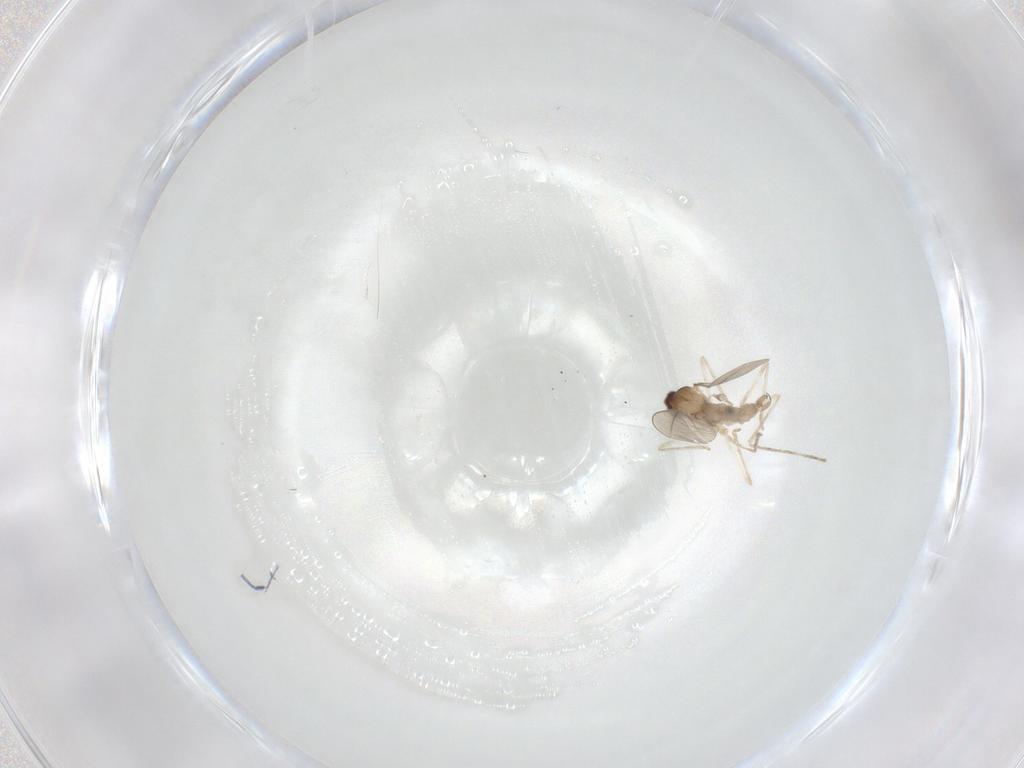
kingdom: Animalia
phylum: Arthropoda
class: Insecta
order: Diptera
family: Cecidomyiidae
